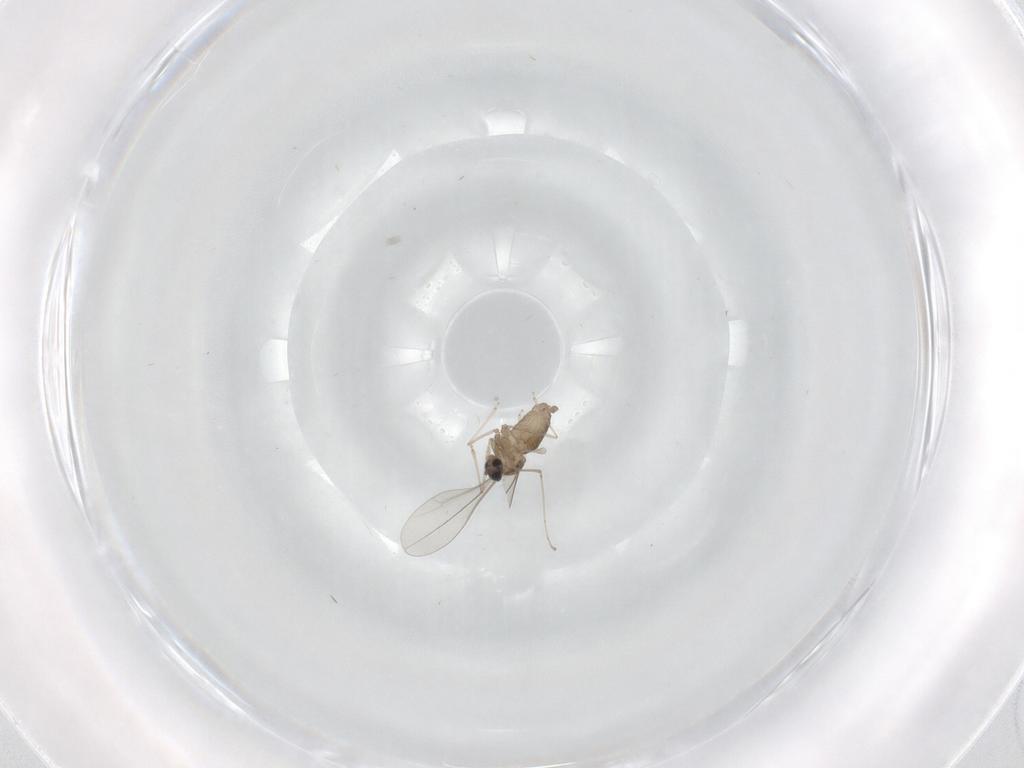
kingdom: Animalia
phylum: Arthropoda
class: Insecta
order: Diptera
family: Cecidomyiidae
